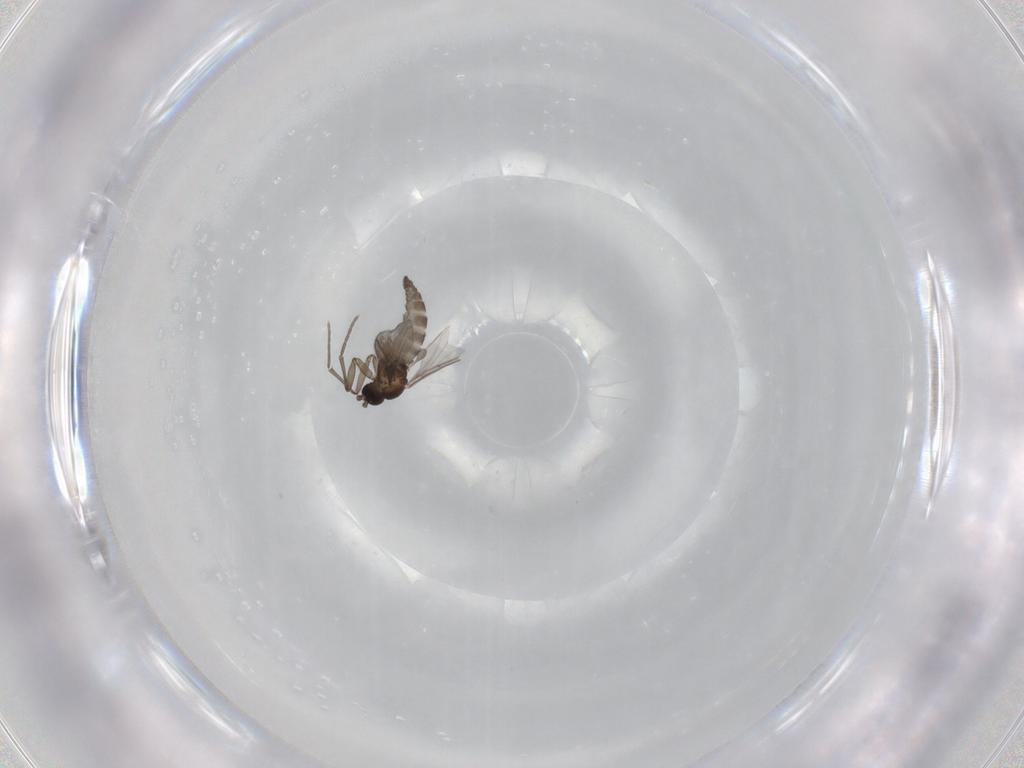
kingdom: Animalia
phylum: Arthropoda
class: Insecta
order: Diptera
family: Sciaridae
